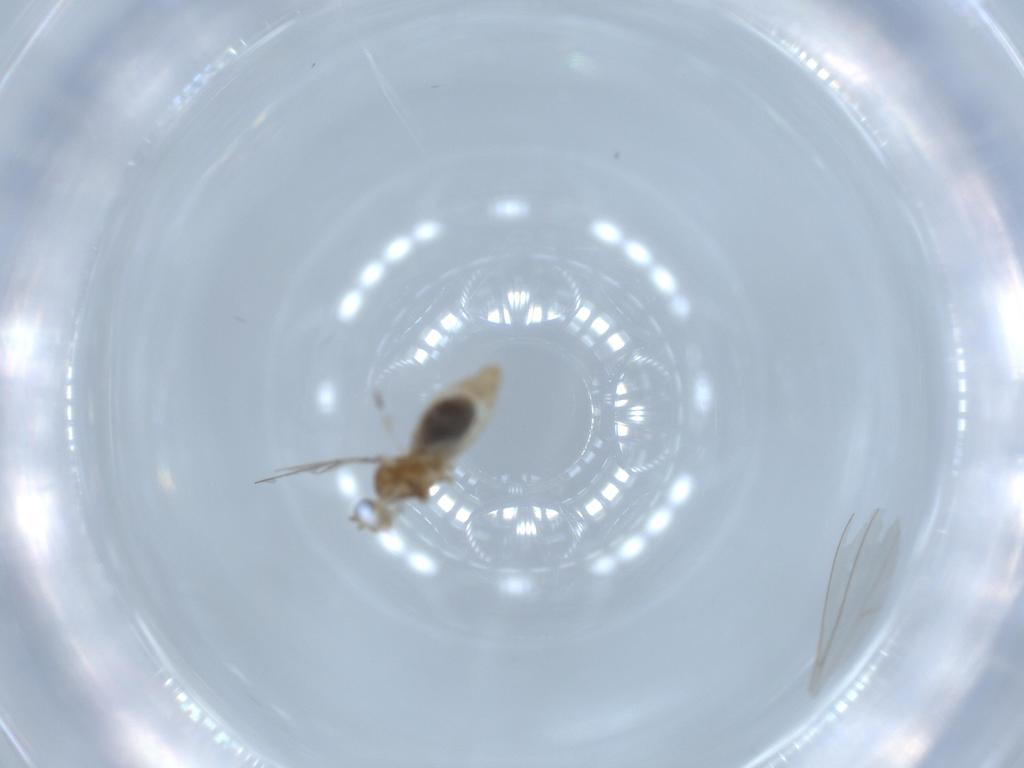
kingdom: Animalia
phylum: Arthropoda
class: Insecta
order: Diptera
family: Cecidomyiidae
